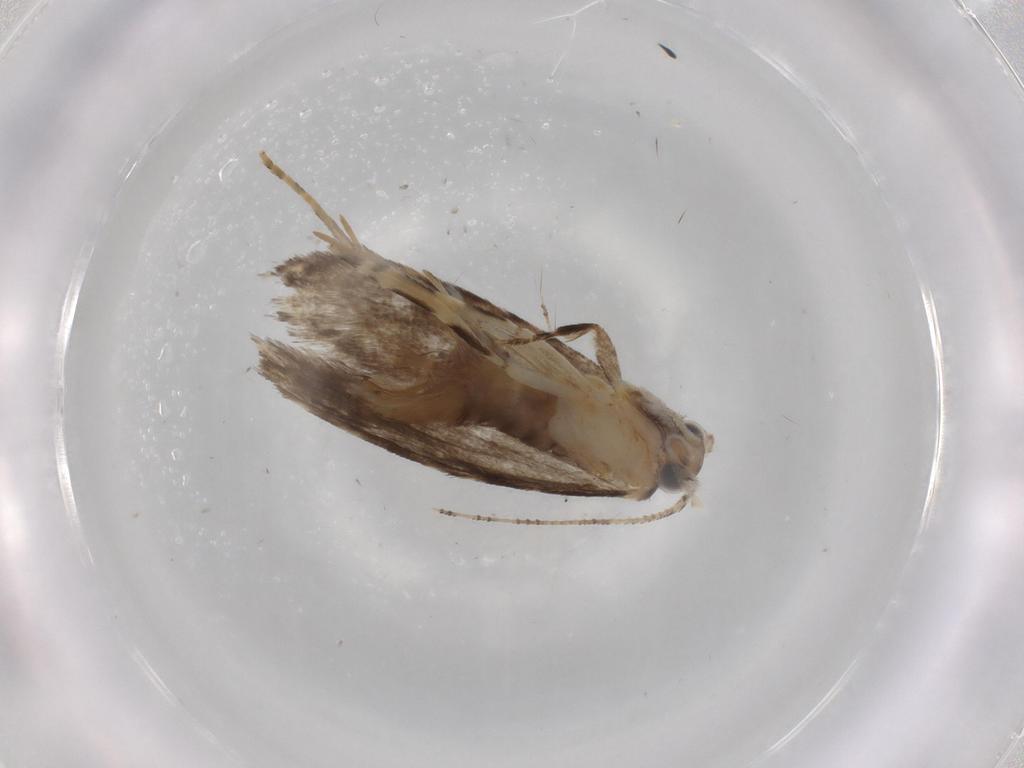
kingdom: Animalia
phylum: Arthropoda
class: Insecta
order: Lepidoptera
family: Tineidae
